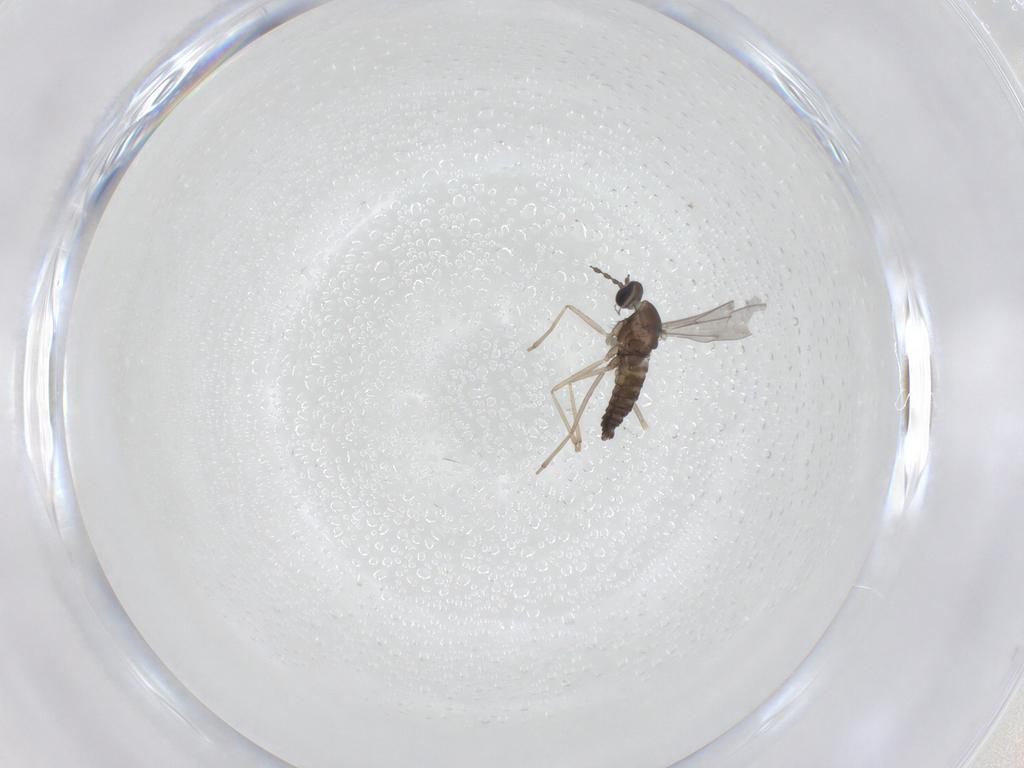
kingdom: Animalia
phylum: Arthropoda
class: Insecta
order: Diptera
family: Cecidomyiidae
